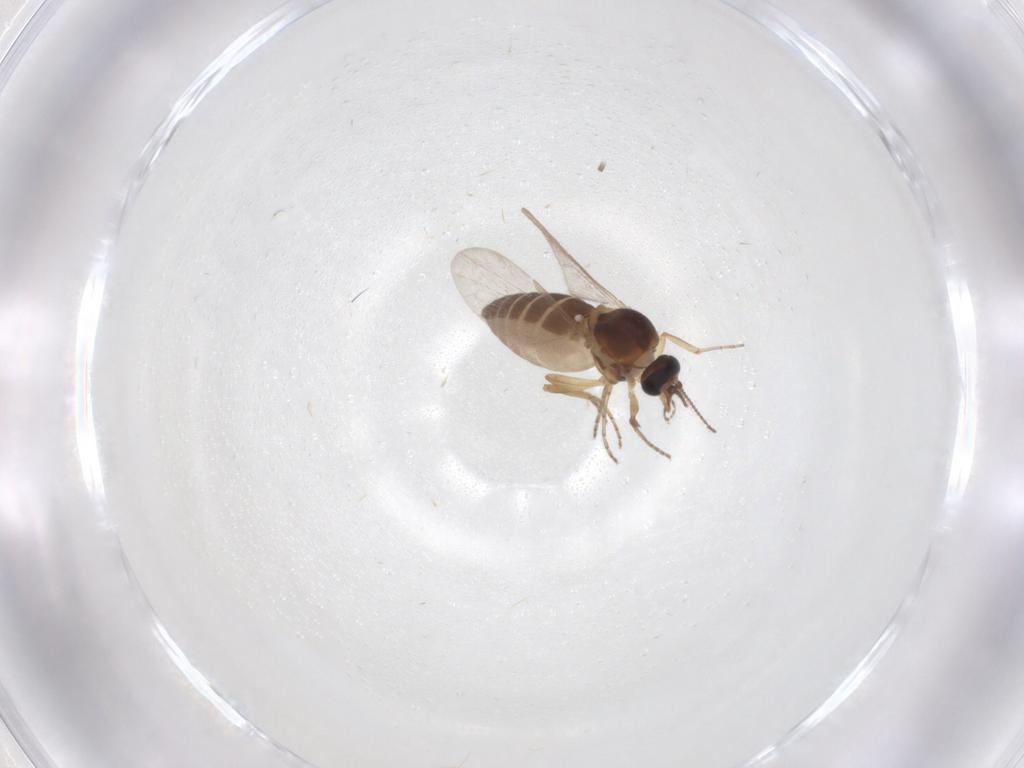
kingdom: Animalia
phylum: Arthropoda
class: Insecta
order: Diptera
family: Ceratopogonidae
